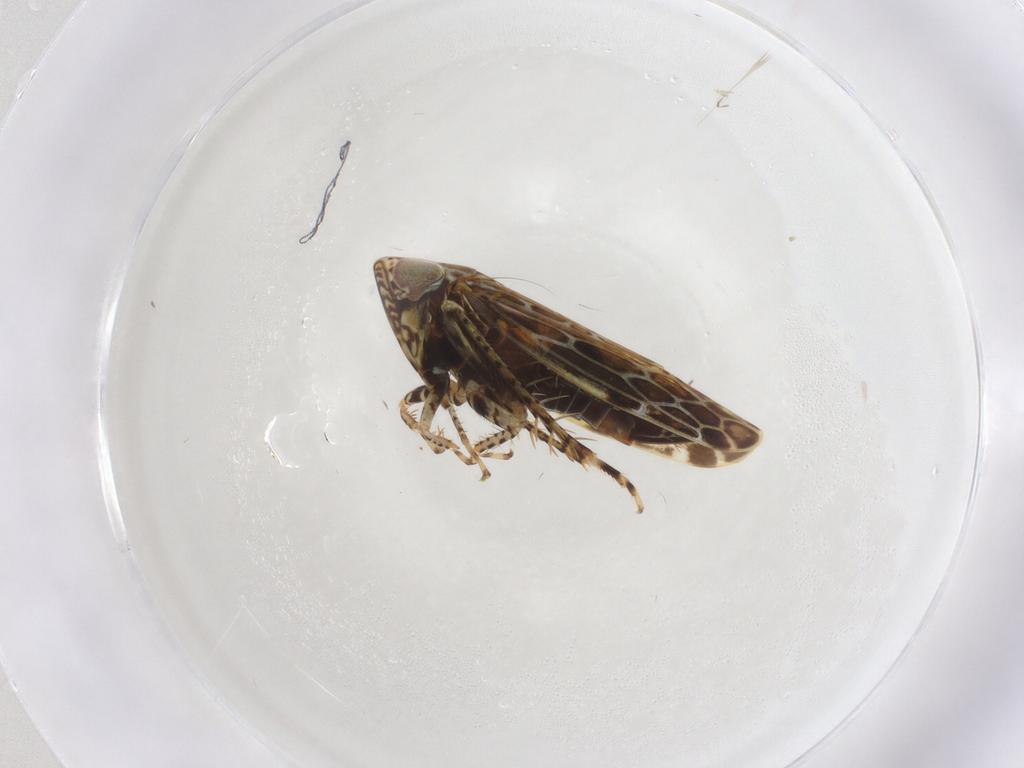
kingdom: Animalia
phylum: Arthropoda
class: Insecta
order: Hemiptera
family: Cicadellidae
